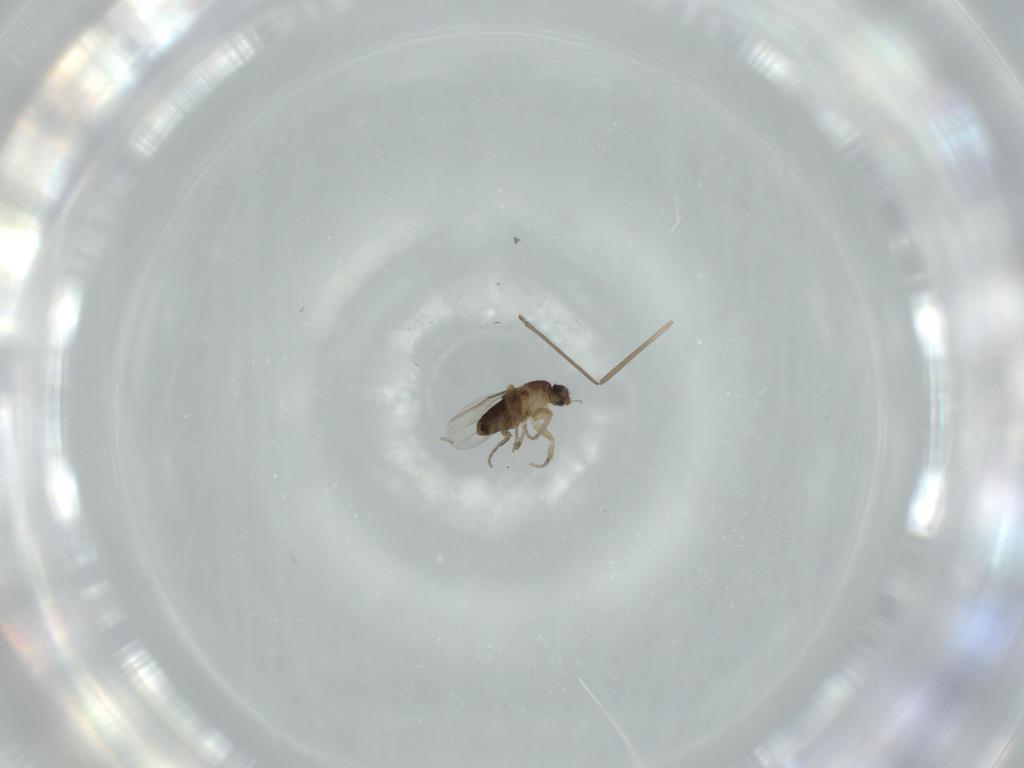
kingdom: Animalia
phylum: Arthropoda
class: Insecta
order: Diptera
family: Phoridae
